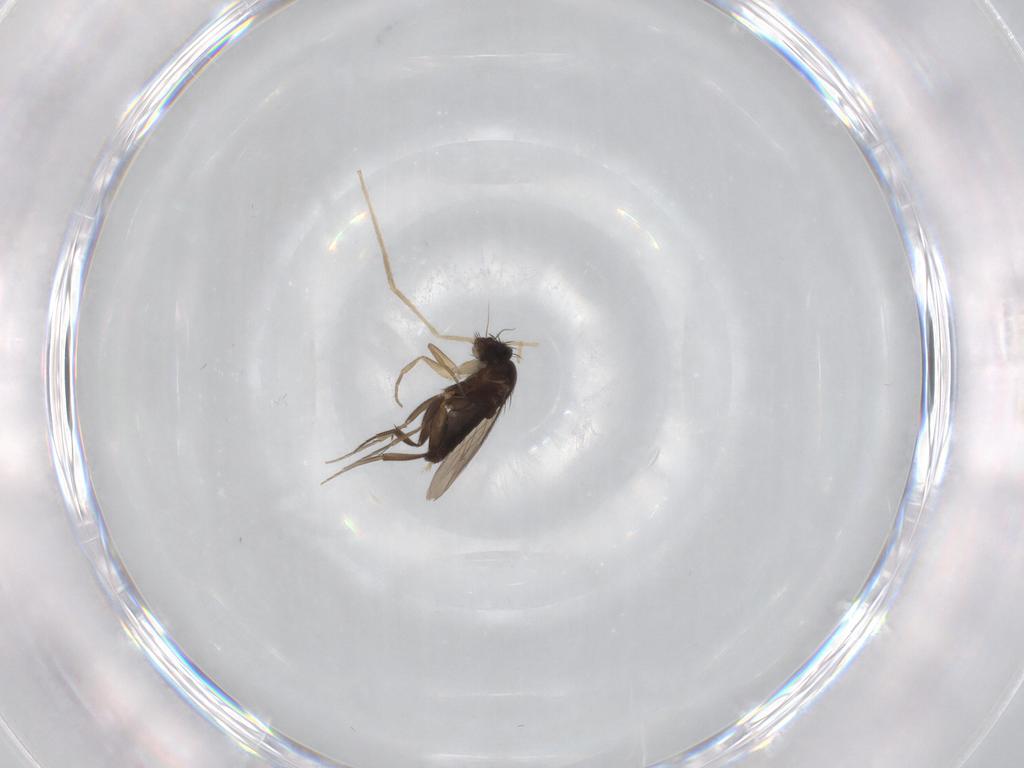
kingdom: Animalia
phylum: Arthropoda
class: Insecta
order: Diptera
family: Phoridae
